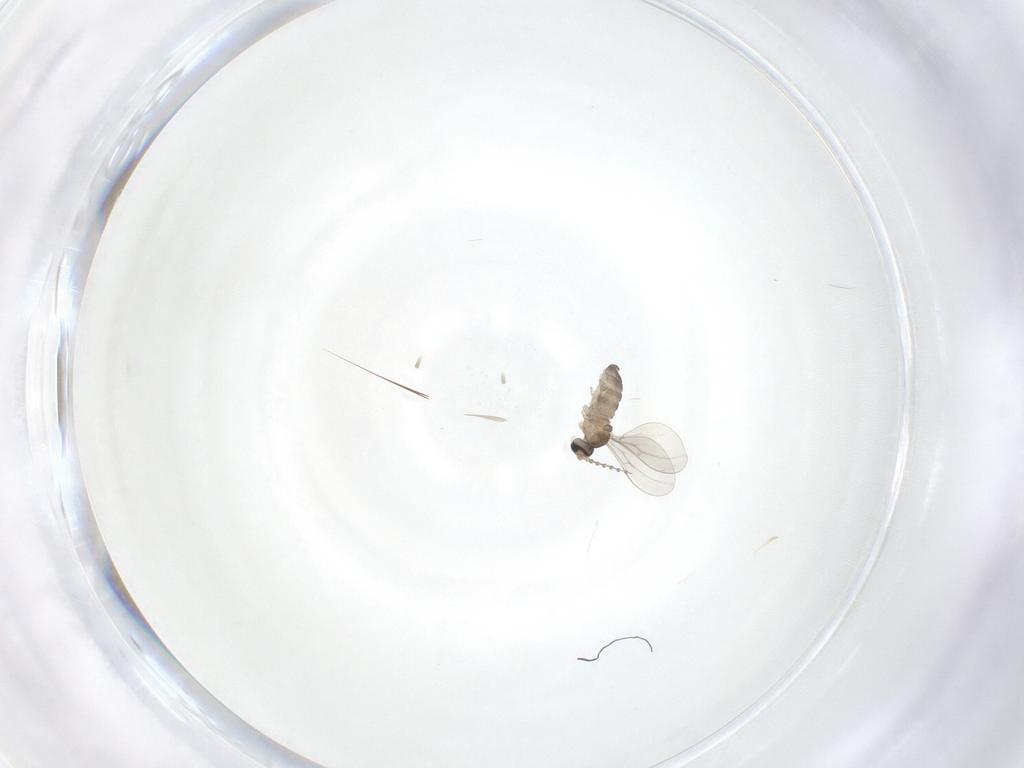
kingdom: Animalia
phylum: Arthropoda
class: Insecta
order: Diptera
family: Cecidomyiidae
